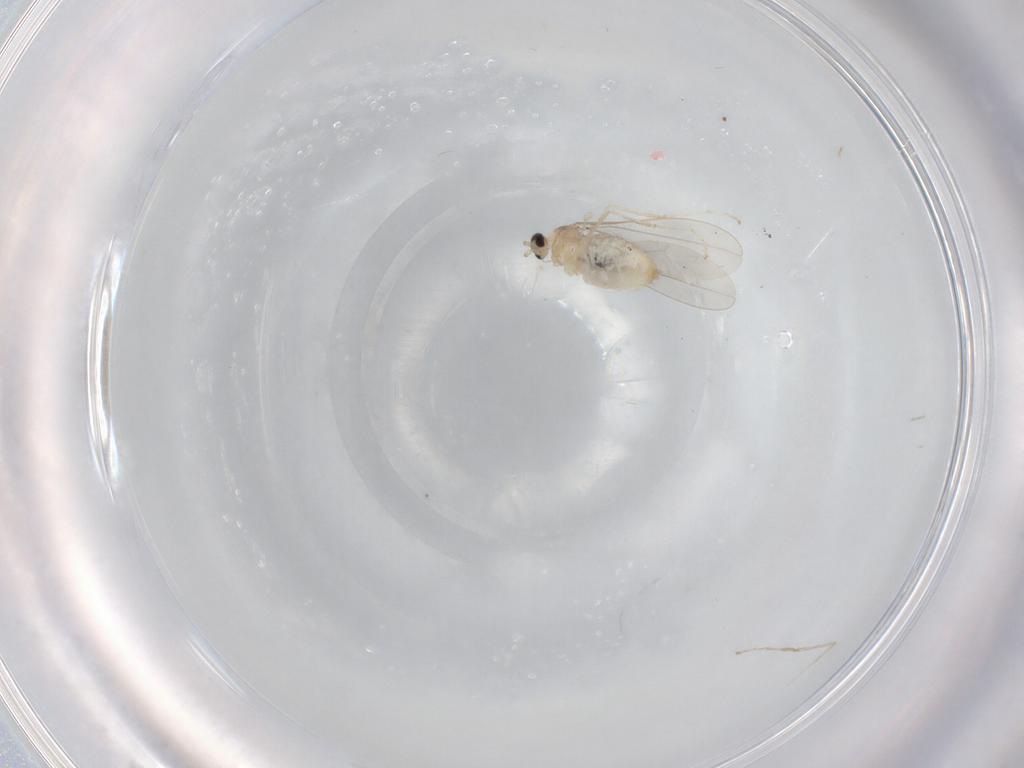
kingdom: Animalia
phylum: Arthropoda
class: Insecta
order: Diptera
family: Cecidomyiidae
